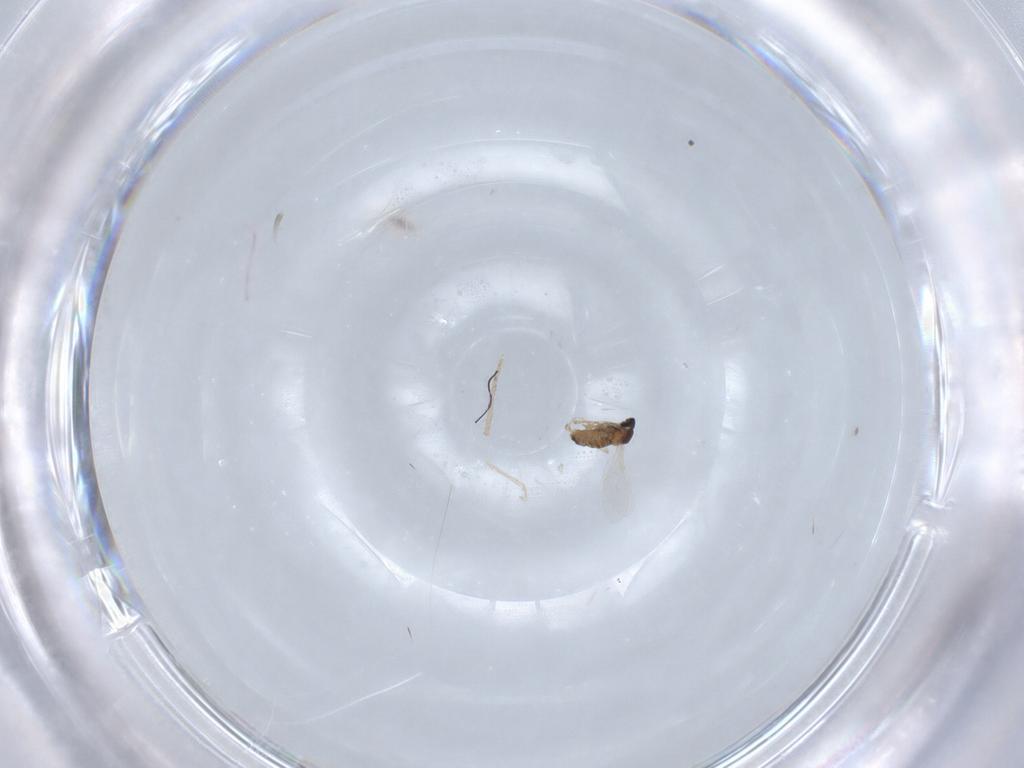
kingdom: Animalia
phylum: Arthropoda
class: Insecta
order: Diptera
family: Cecidomyiidae
